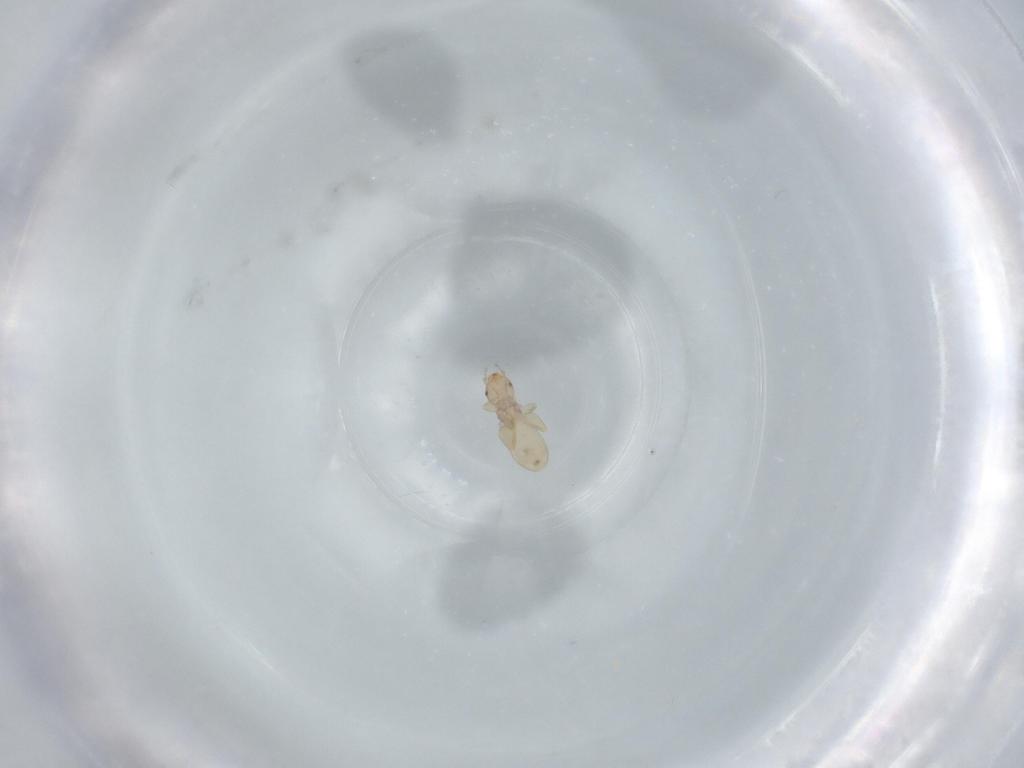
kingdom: Animalia
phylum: Arthropoda
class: Insecta
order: Psocodea
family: Liposcelididae
